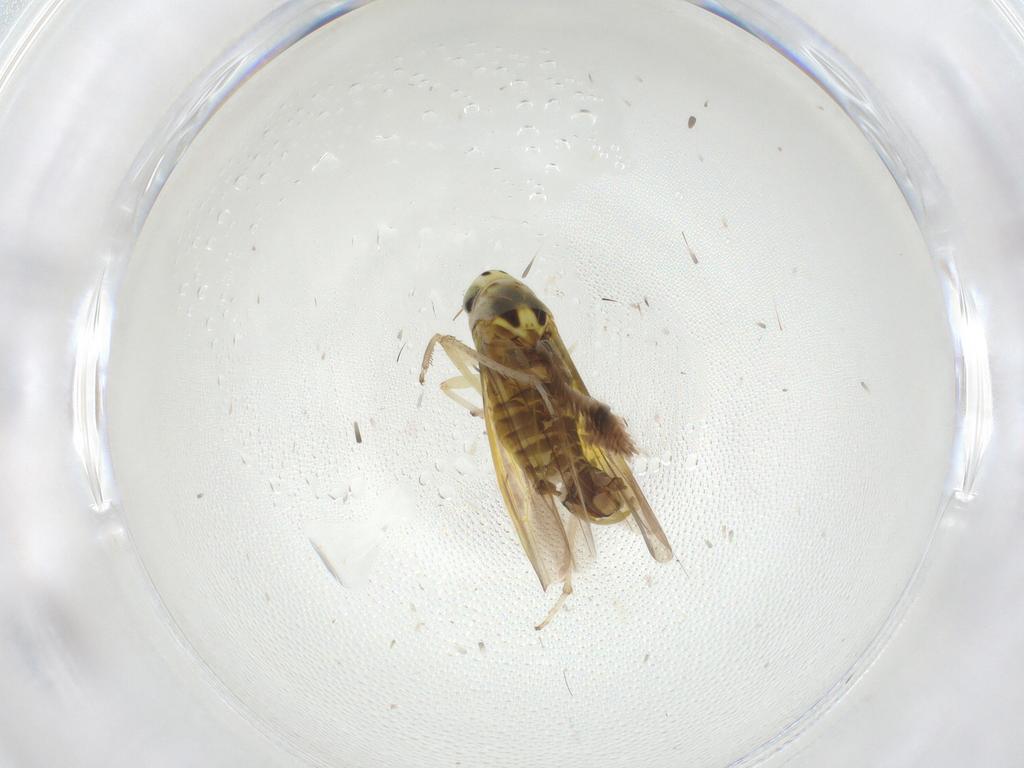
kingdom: Animalia
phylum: Arthropoda
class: Insecta
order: Hemiptera
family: Cicadellidae
